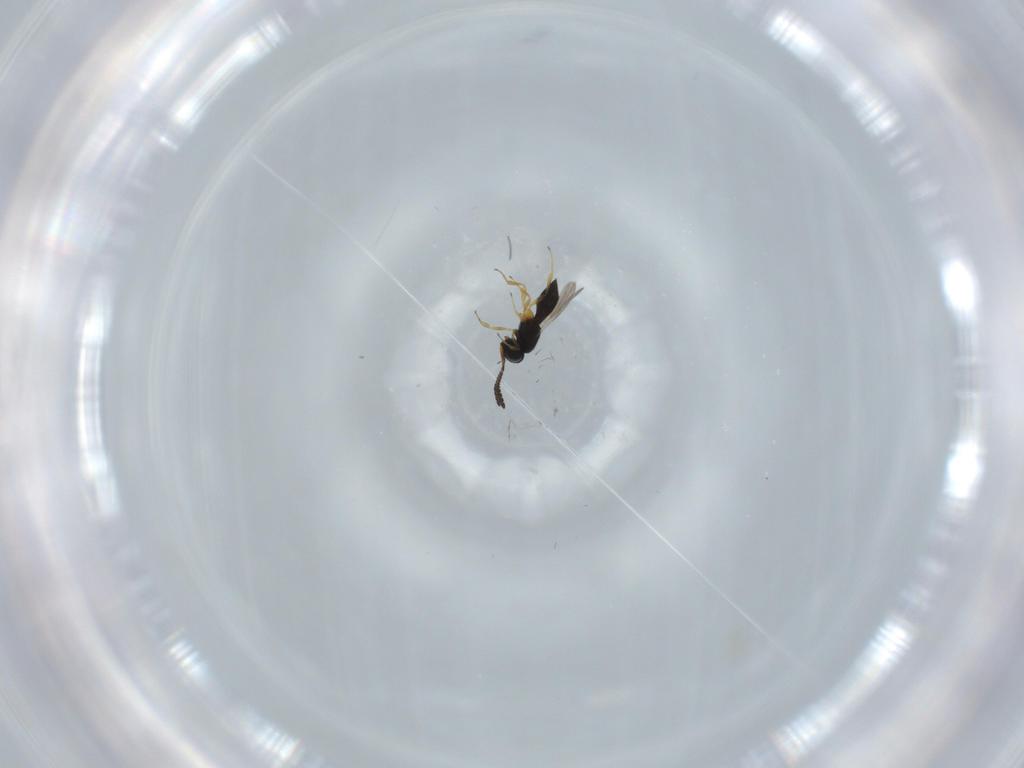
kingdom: Animalia
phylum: Arthropoda
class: Insecta
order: Hymenoptera
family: Scelionidae
